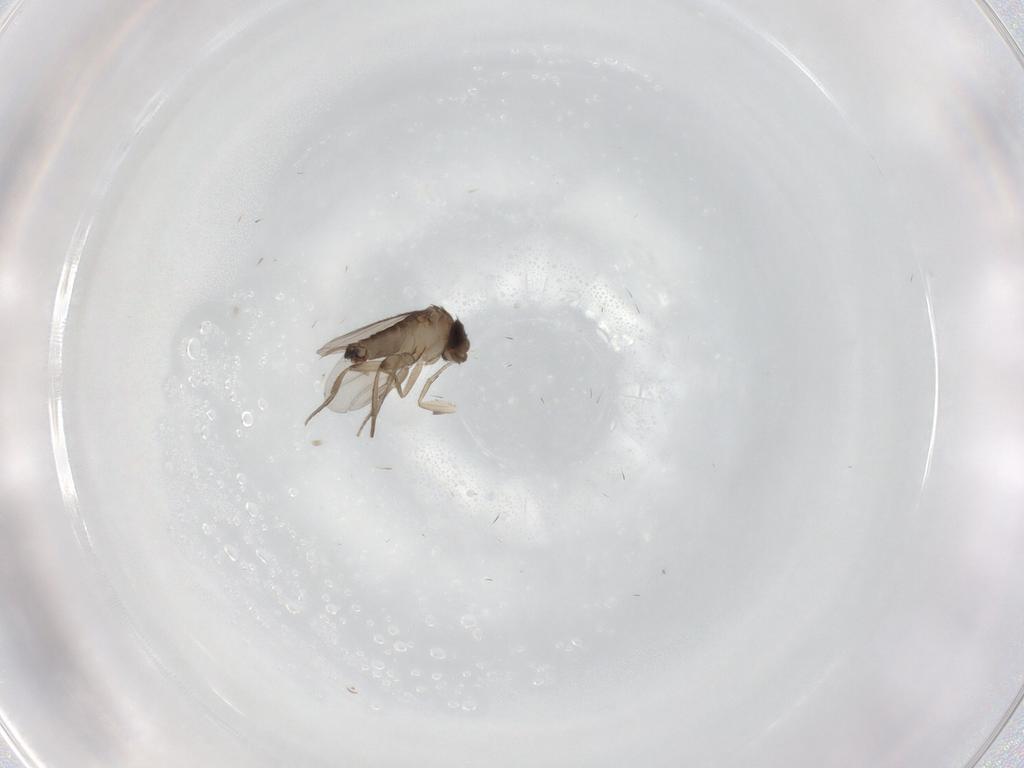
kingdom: Animalia
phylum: Arthropoda
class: Insecta
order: Diptera
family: Phoridae
